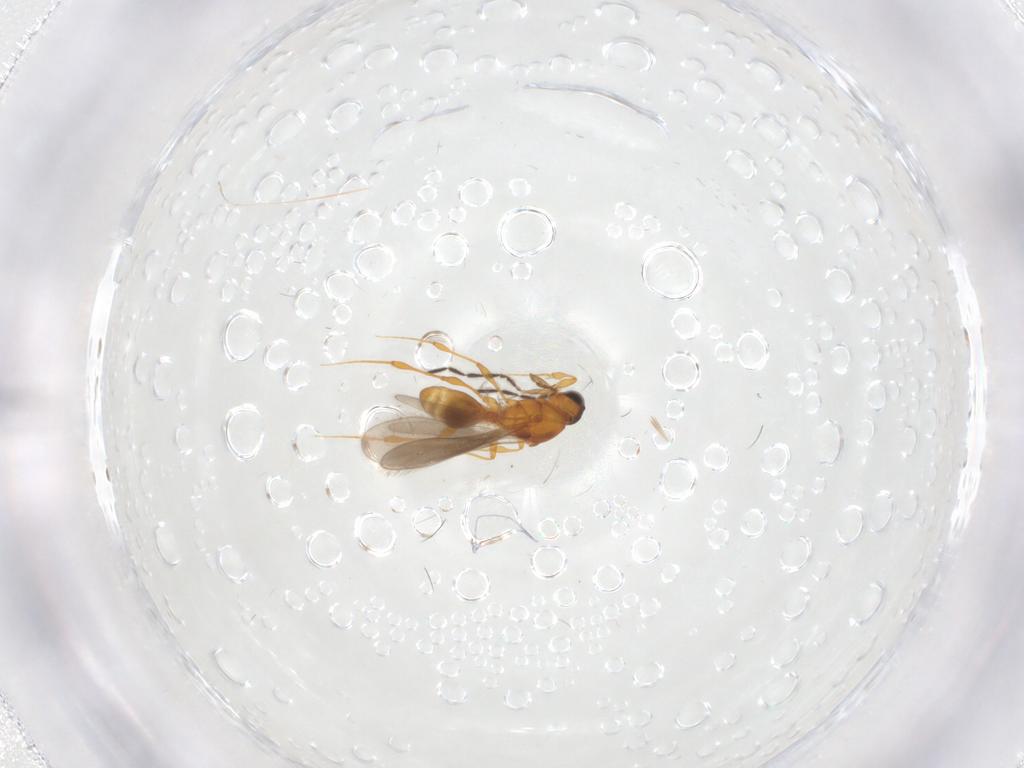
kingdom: Animalia
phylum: Arthropoda
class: Insecta
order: Hymenoptera
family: Platygastridae
